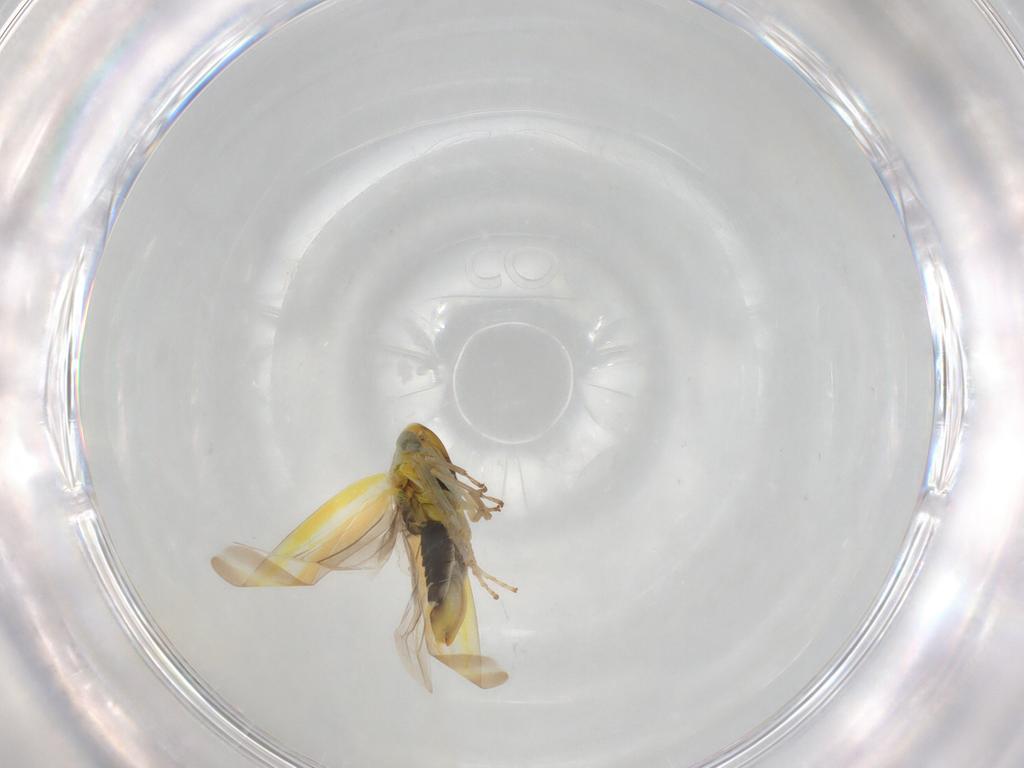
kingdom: Animalia
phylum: Arthropoda
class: Insecta
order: Hemiptera
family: Cicadellidae
